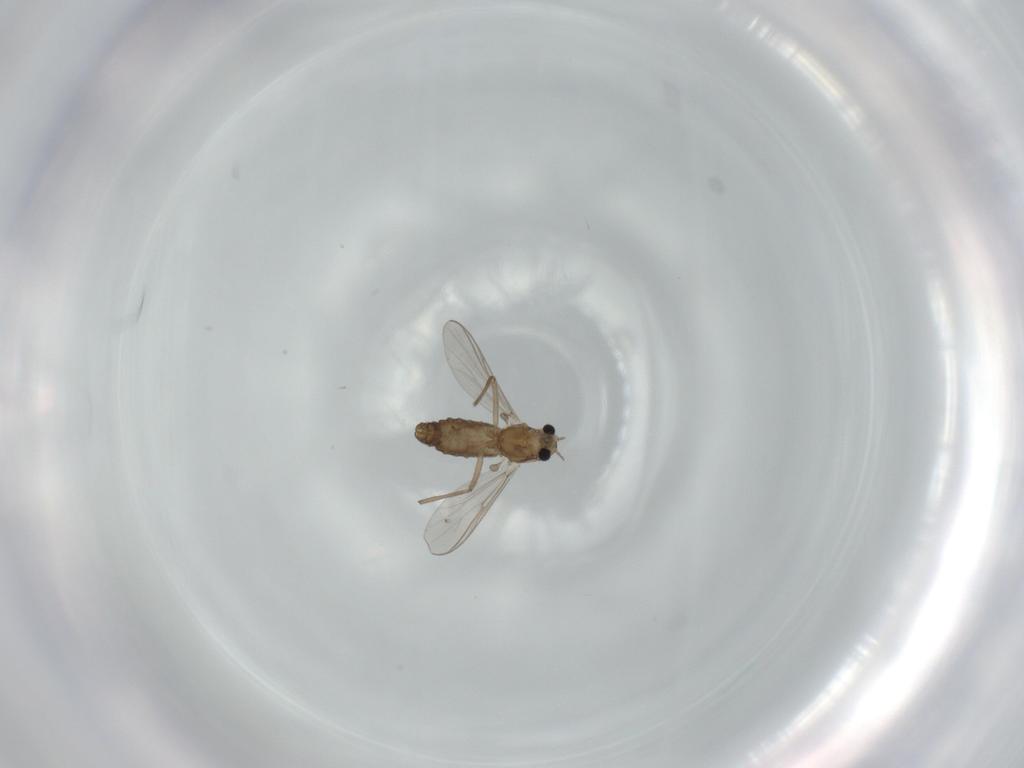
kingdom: Animalia
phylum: Arthropoda
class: Insecta
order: Diptera
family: Chironomidae
